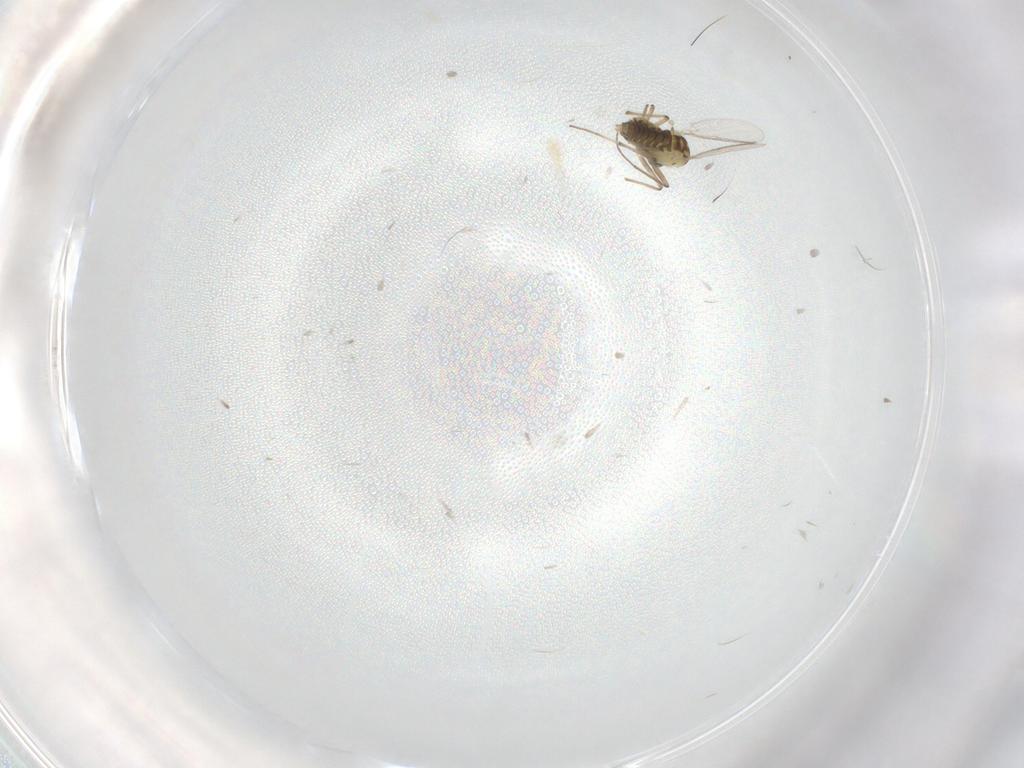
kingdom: Animalia
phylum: Arthropoda
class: Insecta
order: Diptera
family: Chironomidae
